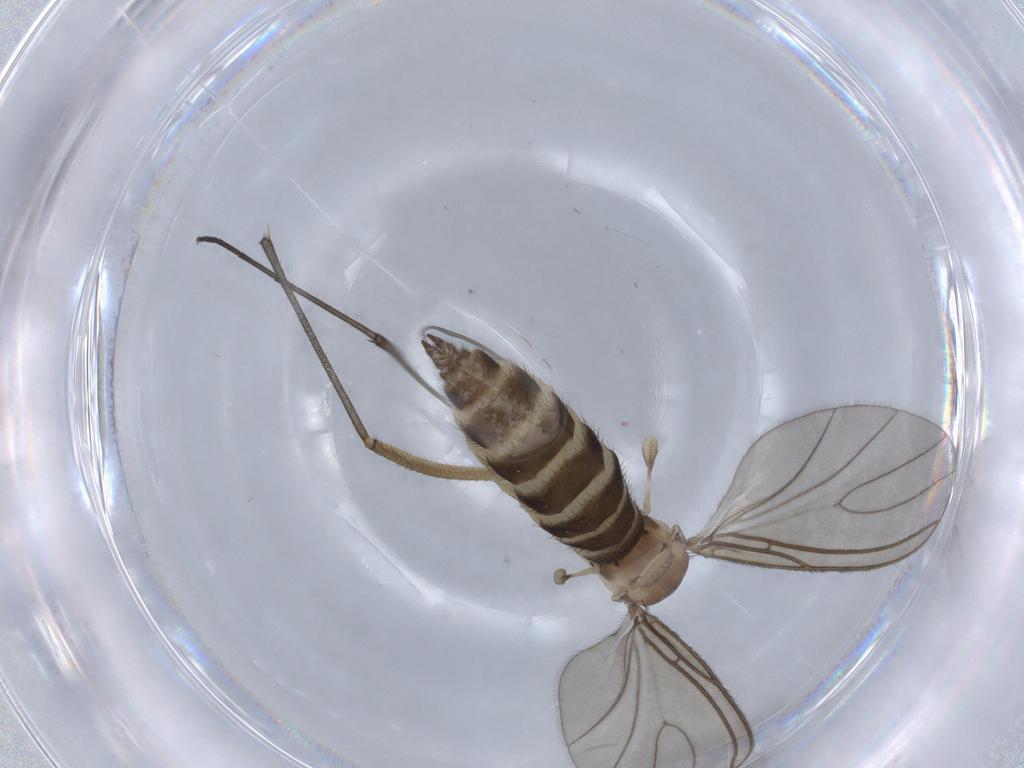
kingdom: Animalia
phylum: Arthropoda
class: Insecta
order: Diptera
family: Sciaridae
